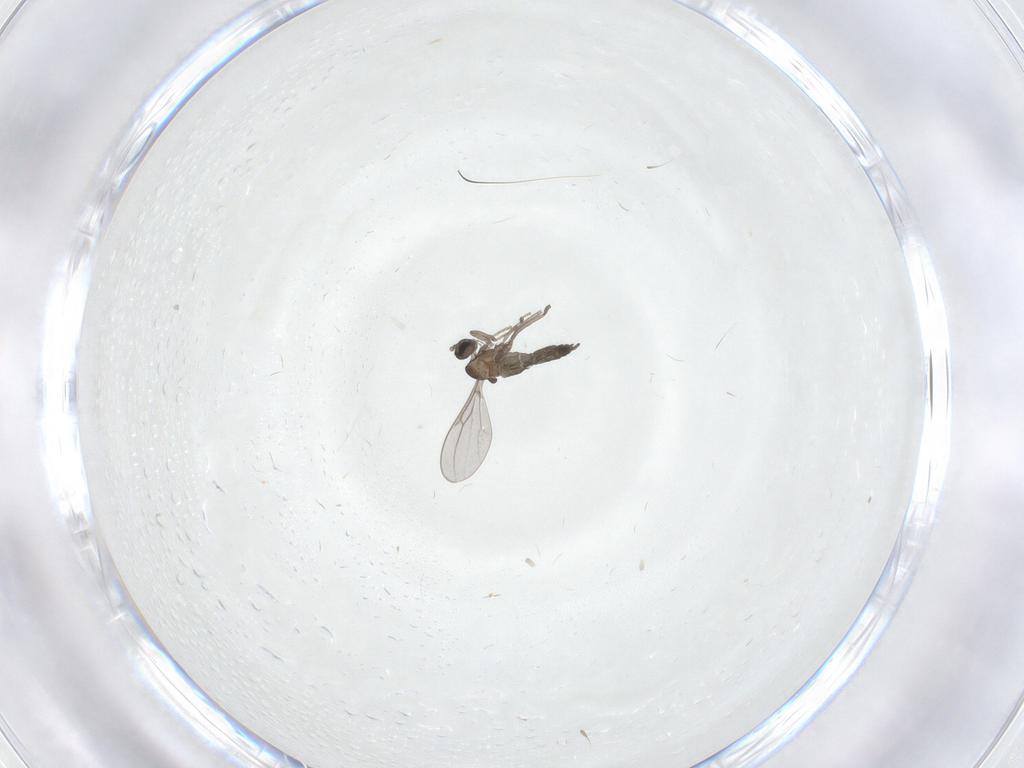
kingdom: Animalia
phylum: Arthropoda
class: Insecta
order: Diptera
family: Cecidomyiidae
